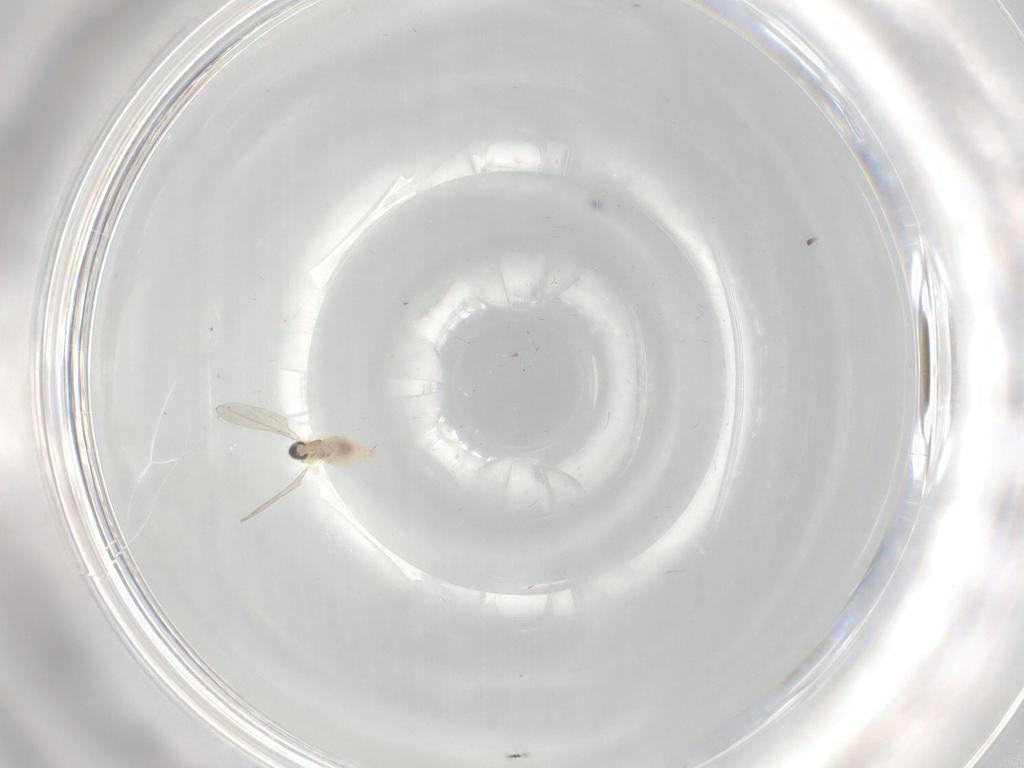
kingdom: Animalia
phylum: Arthropoda
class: Insecta
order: Diptera
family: Cecidomyiidae
